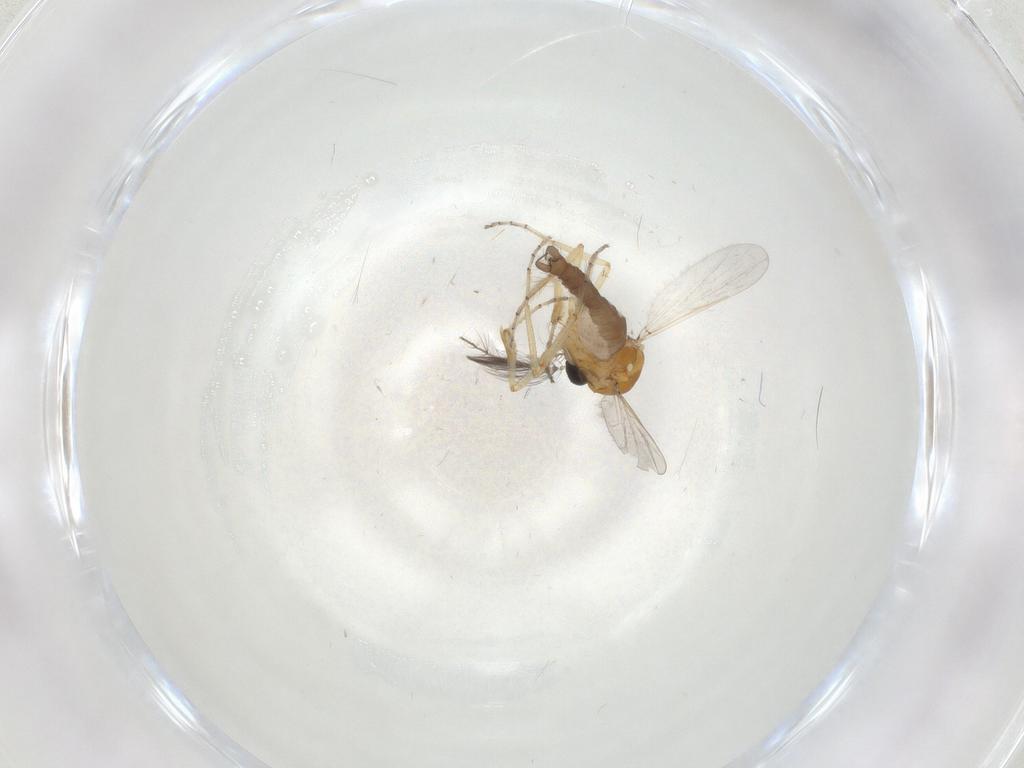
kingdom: Animalia
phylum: Arthropoda
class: Insecta
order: Diptera
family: Ceratopogonidae
